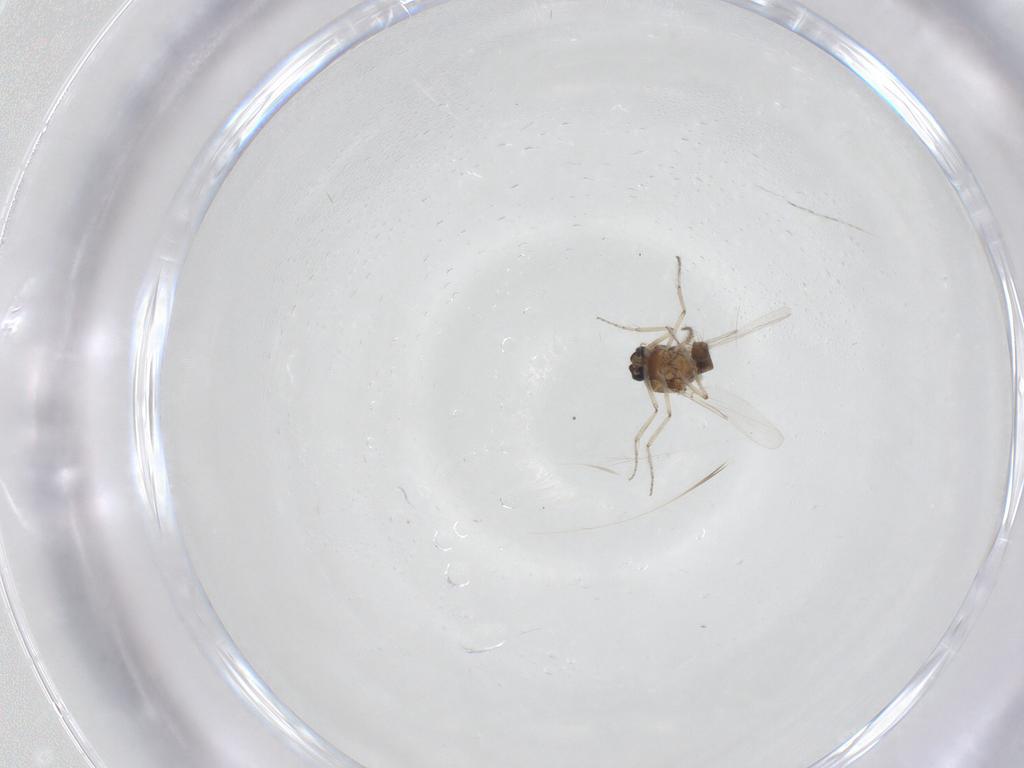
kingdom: Animalia
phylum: Arthropoda
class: Insecta
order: Diptera
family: Ceratopogonidae
